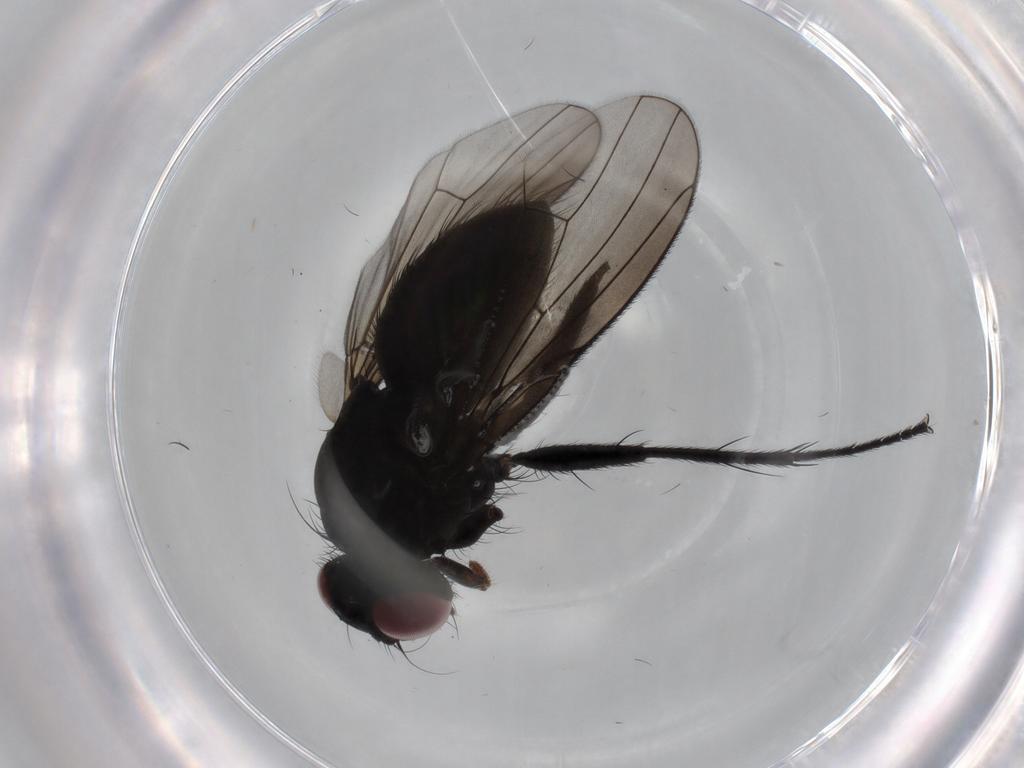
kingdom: Animalia
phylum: Arthropoda
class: Insecta
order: Diptera
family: Muscidae
